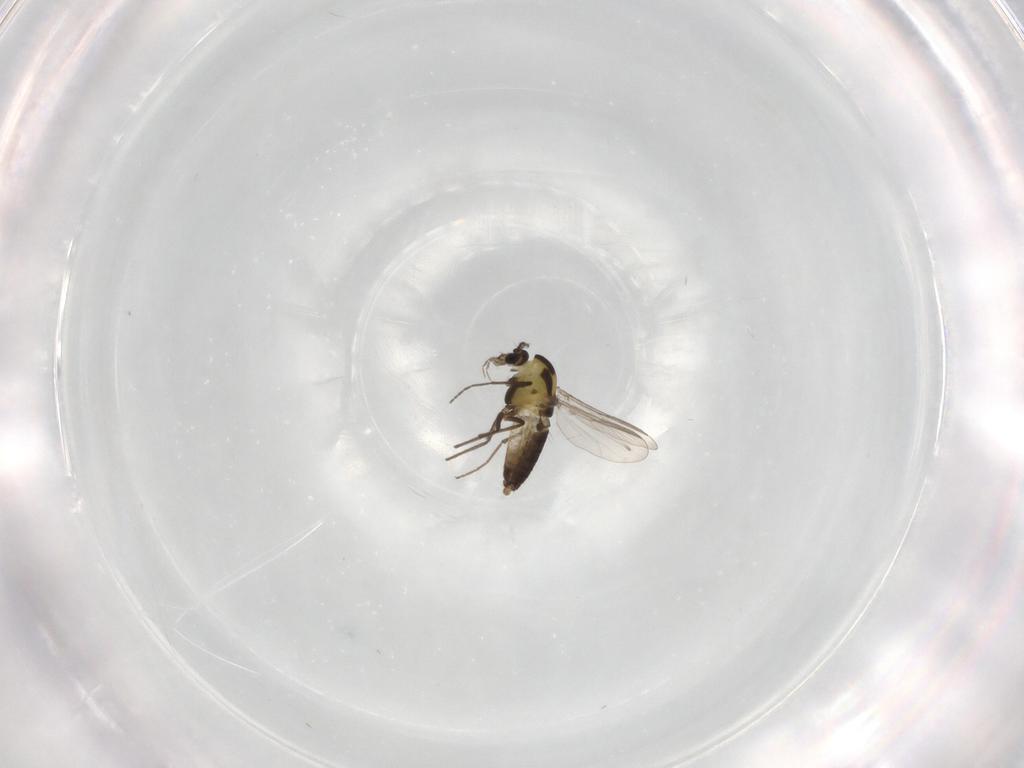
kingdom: Animalia
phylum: Arthropoda
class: Insecta
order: Diptera
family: Chironomidae
